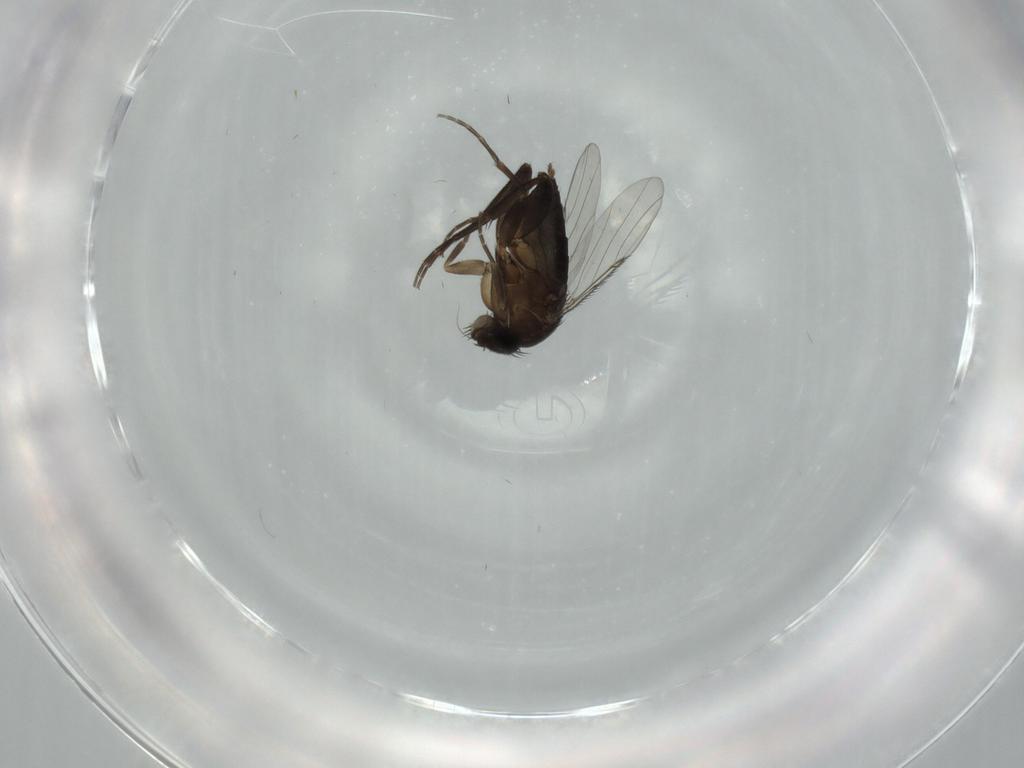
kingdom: Animalia
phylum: Arthropoda
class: Insecta
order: Diptera
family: Phoridae
